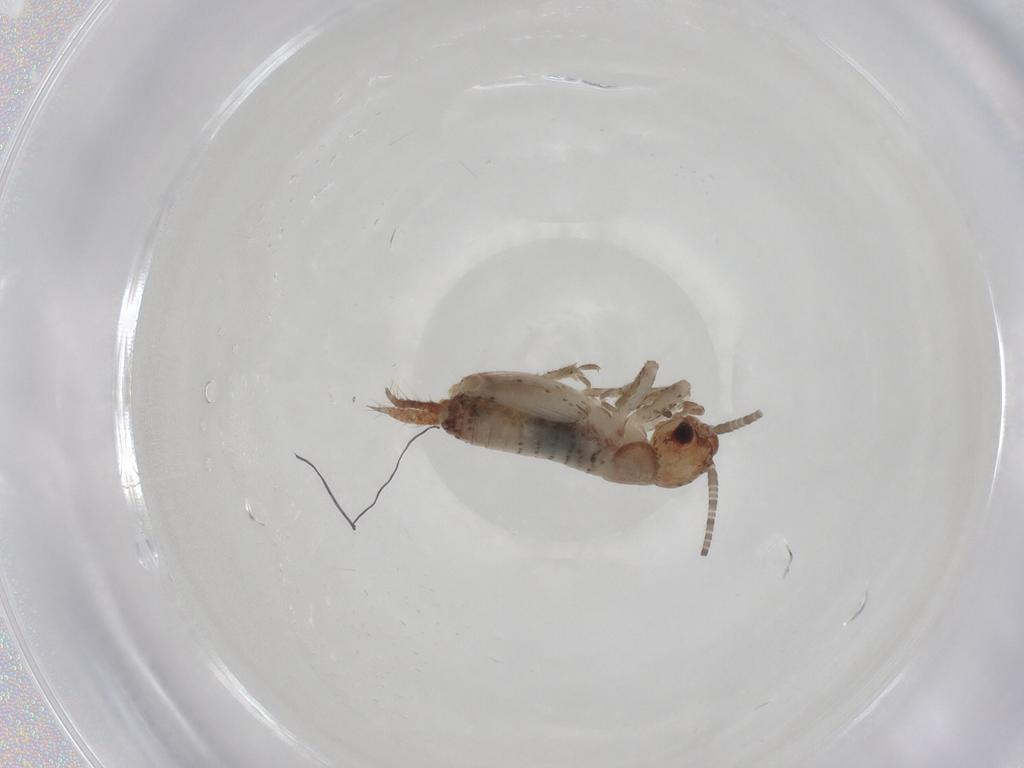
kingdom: Animalia
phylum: Arthropoda
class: Insecta
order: Orthoptera
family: Gryllidae
